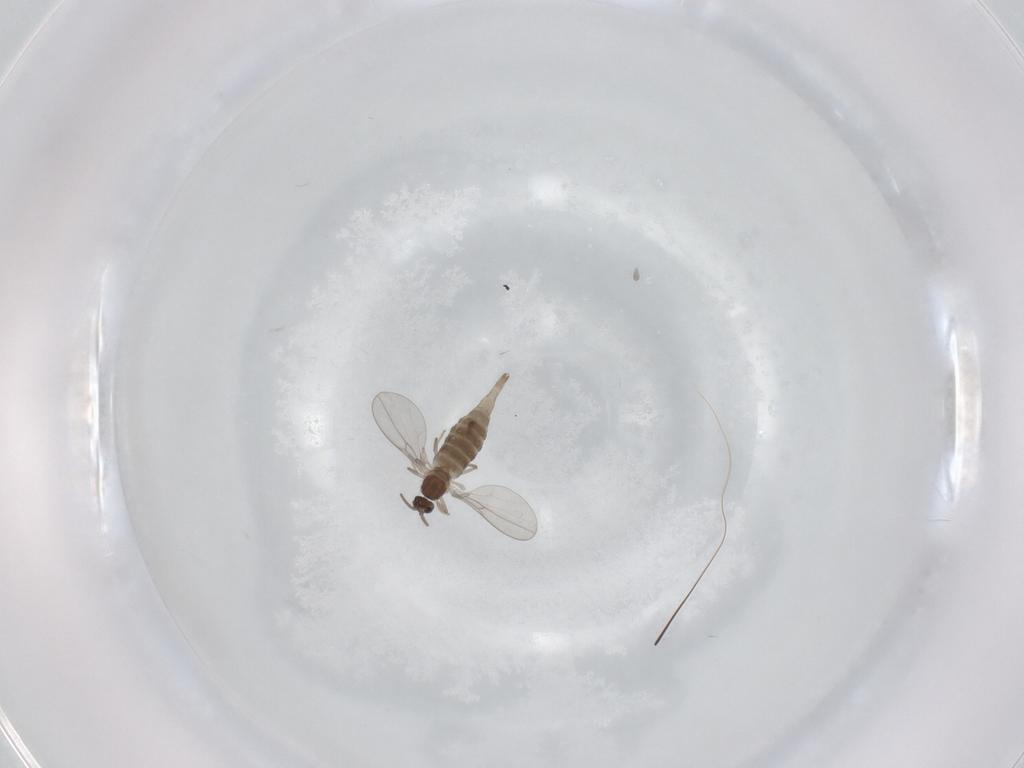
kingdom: Animalia
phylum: Arthropoda
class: Insecta
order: Diptera
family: Cecidomyiidae
